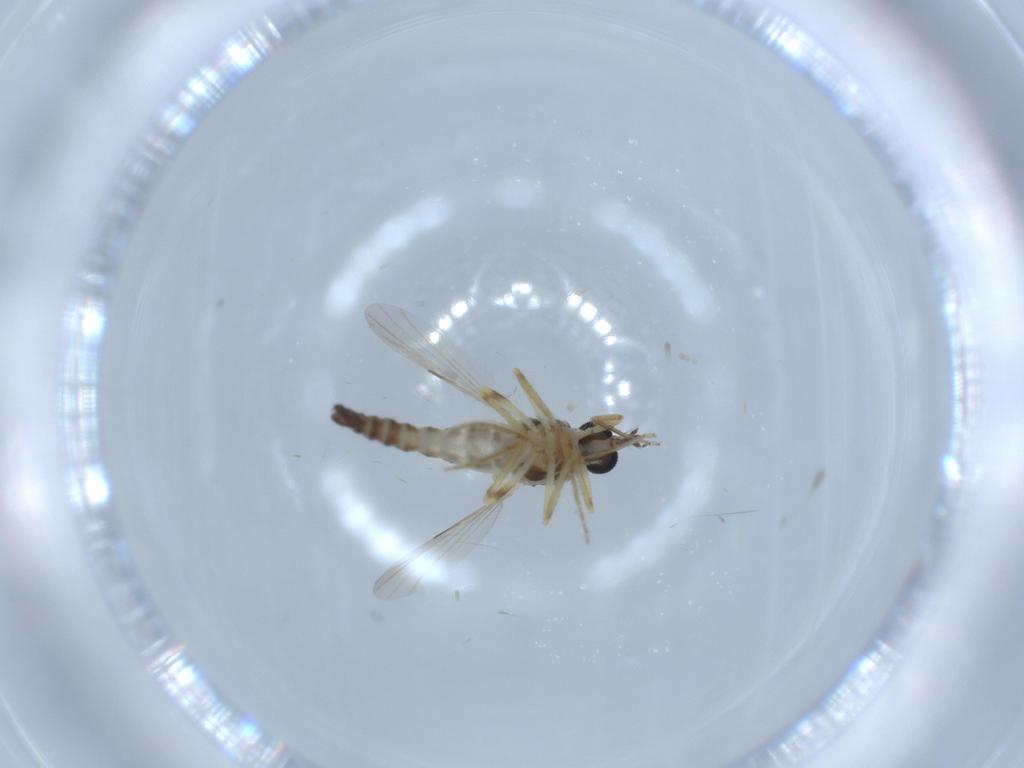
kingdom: Animalia
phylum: Arthropoda
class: Insecta
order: Diptera
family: Ceratopogonidae
